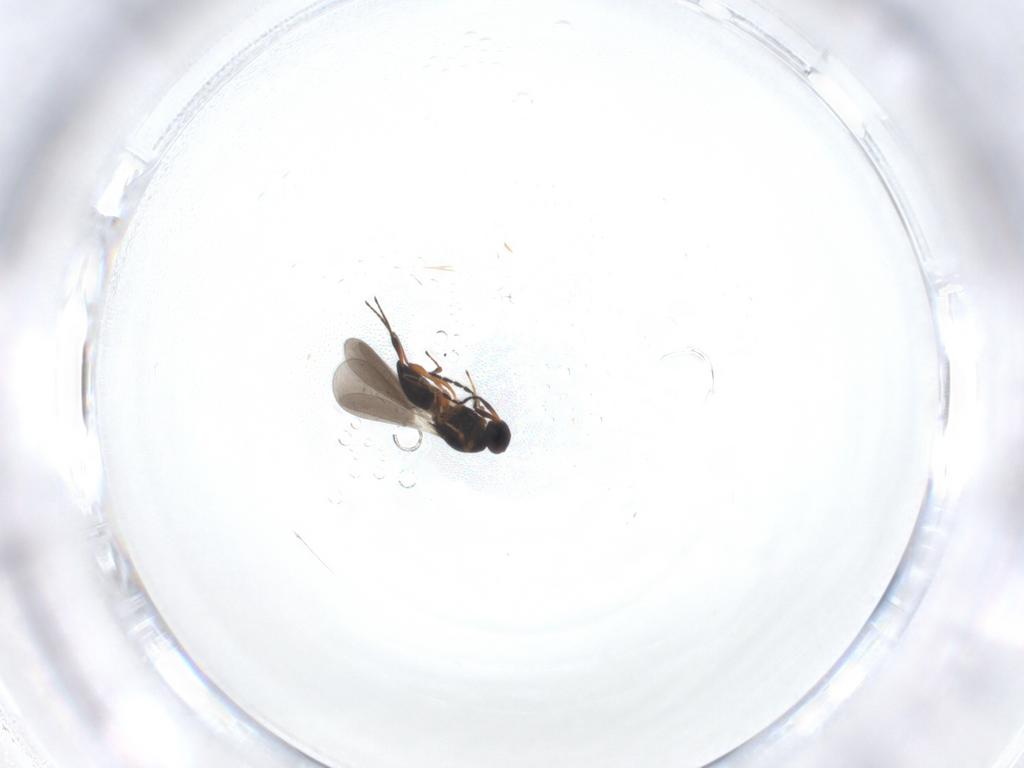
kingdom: Animalia
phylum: Arthropoda
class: Insecta
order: Hymenoptera
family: Platygastridae
